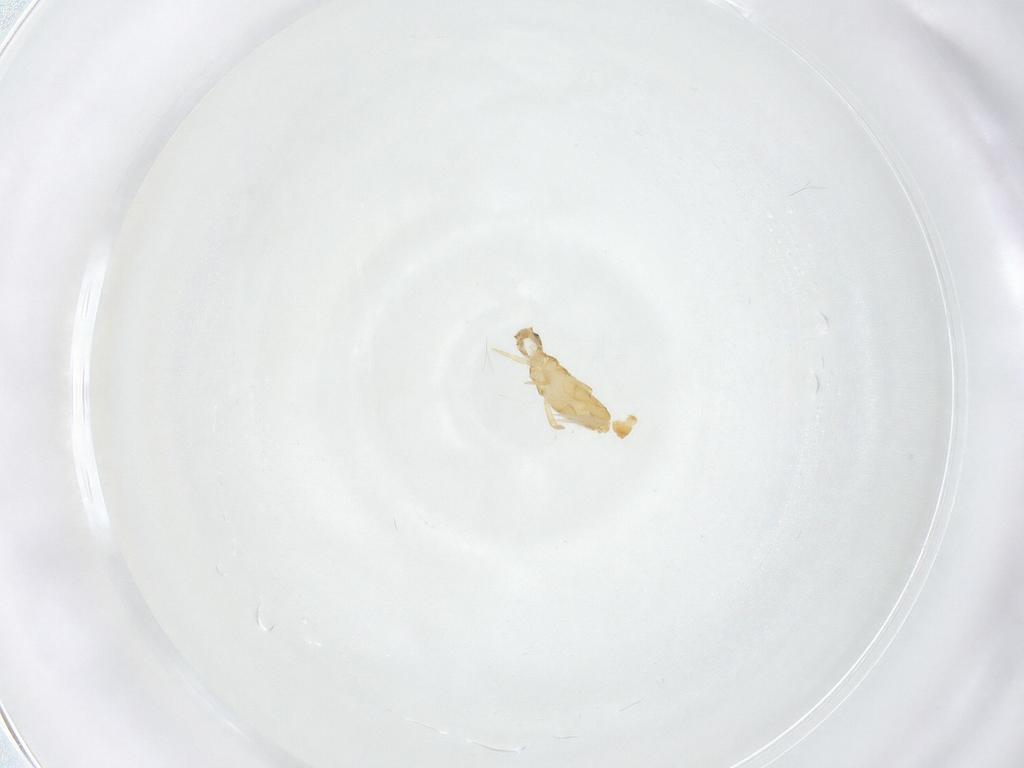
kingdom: Animalia
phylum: Arthropoda
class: Collembola
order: Entomobryomorpha
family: Entomobryidae
